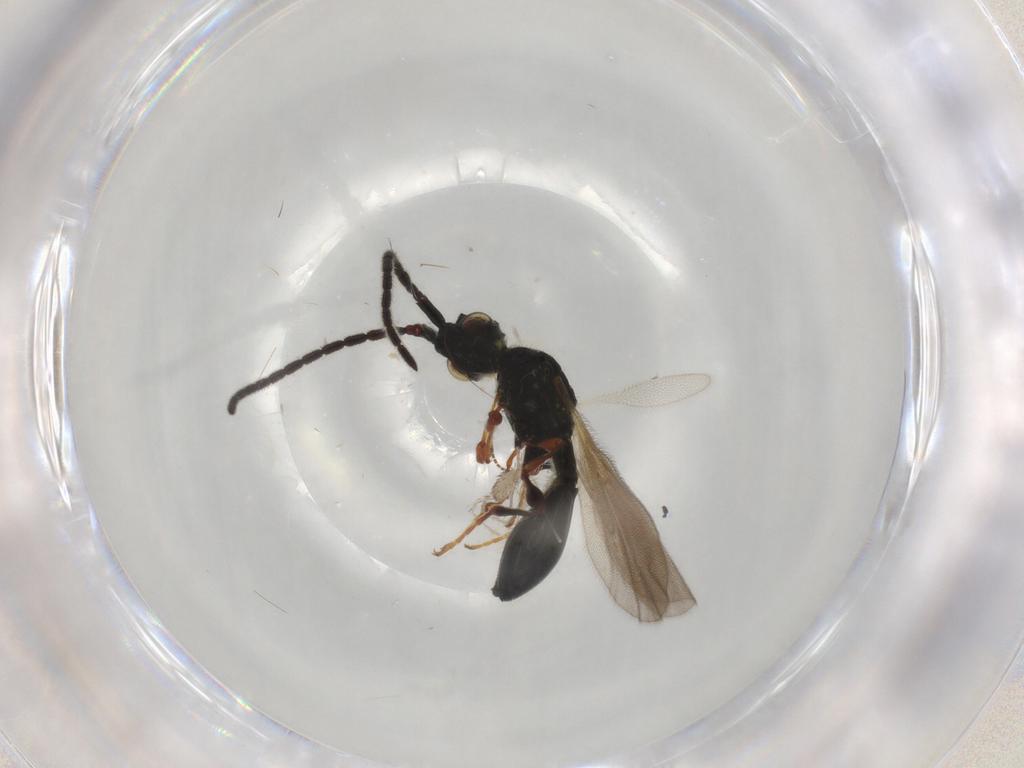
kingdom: Animalia
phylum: Arthropoda
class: Insecta
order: Hymenoptera
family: Diapriidae
